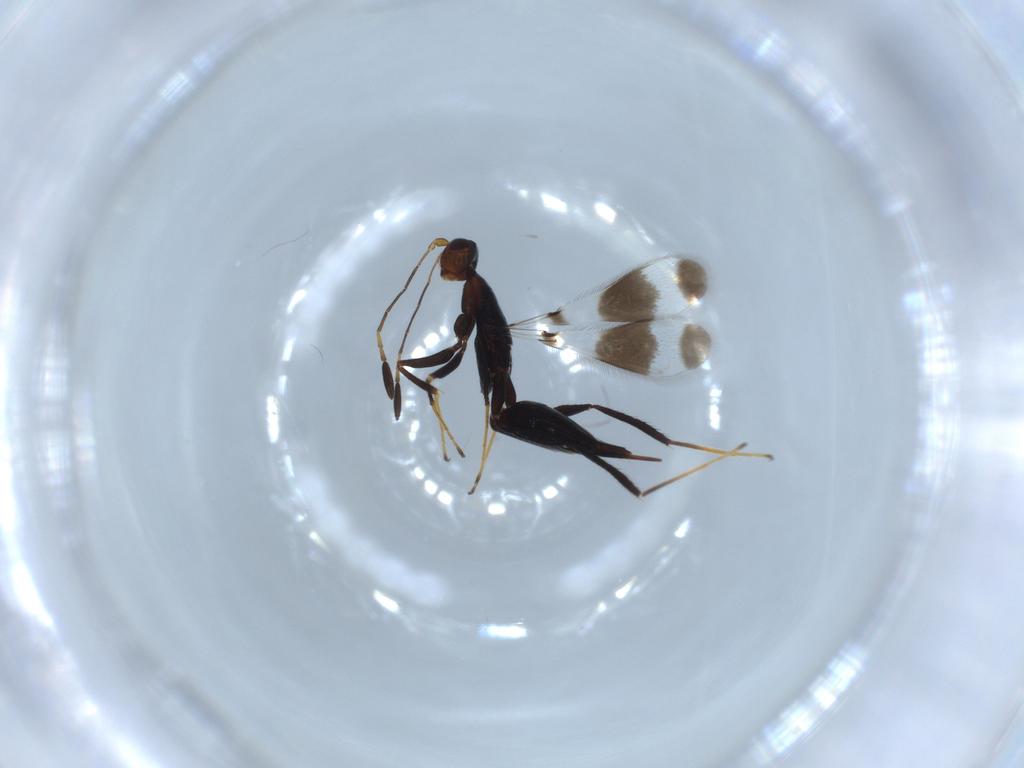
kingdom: Animalia
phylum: Arthropoda
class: Insecta
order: Hymenoptera
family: Mymaridae
